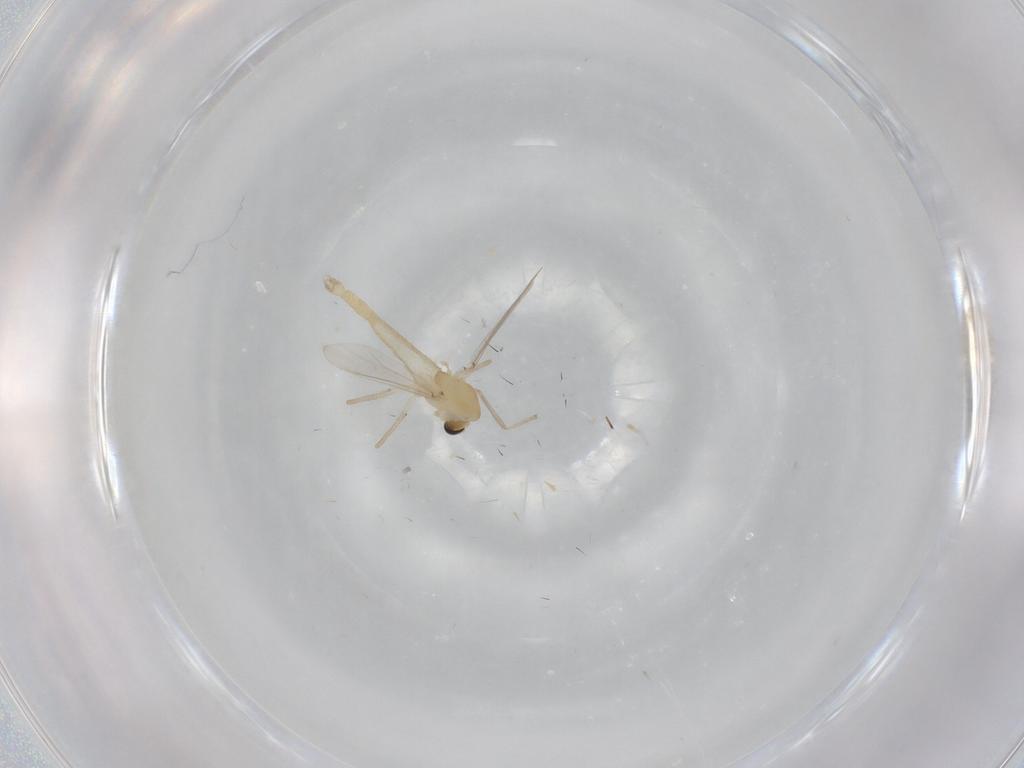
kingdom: Animalia
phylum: Arthropoda
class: Insecta
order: Diptera
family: Chironomidae
